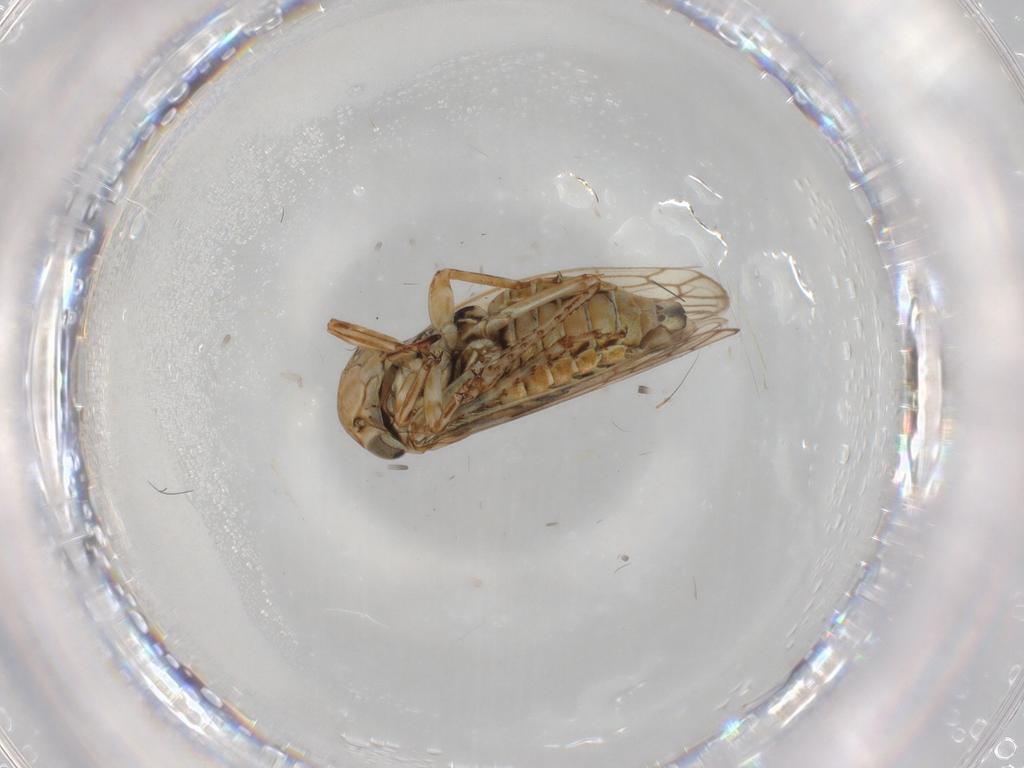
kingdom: Animalia
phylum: Arthropoda
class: Insecta
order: Hemiptera
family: Cicadellidae
